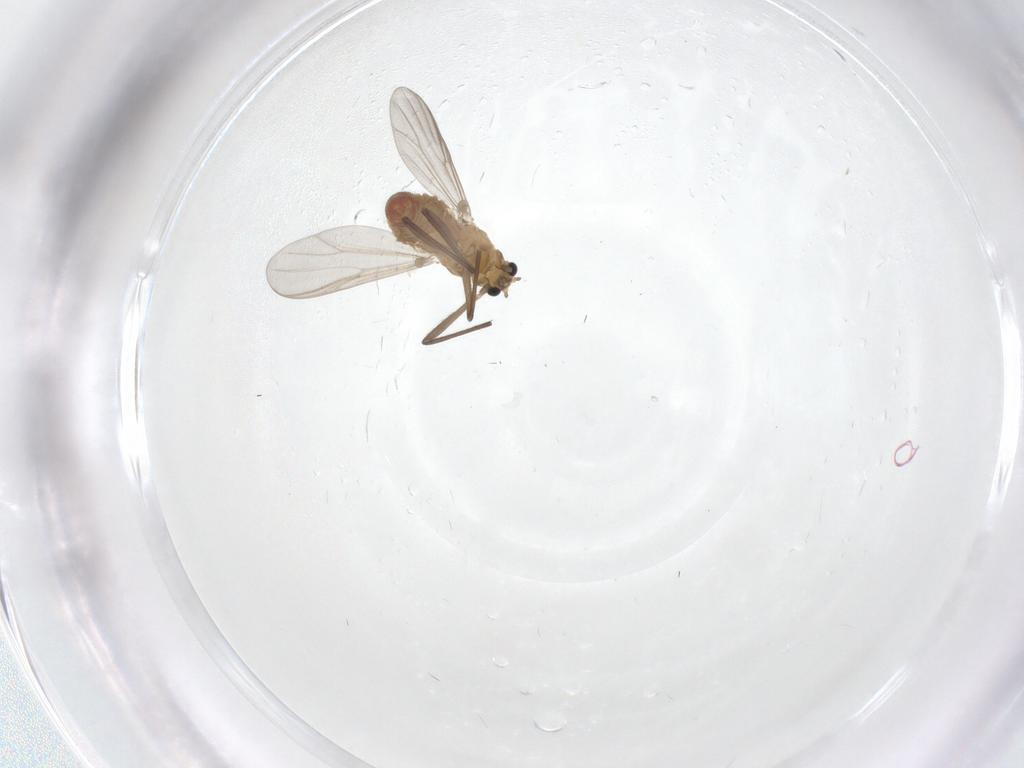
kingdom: Animalia
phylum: Arthropoda
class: Insecta
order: Diptera
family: Chironomidae
